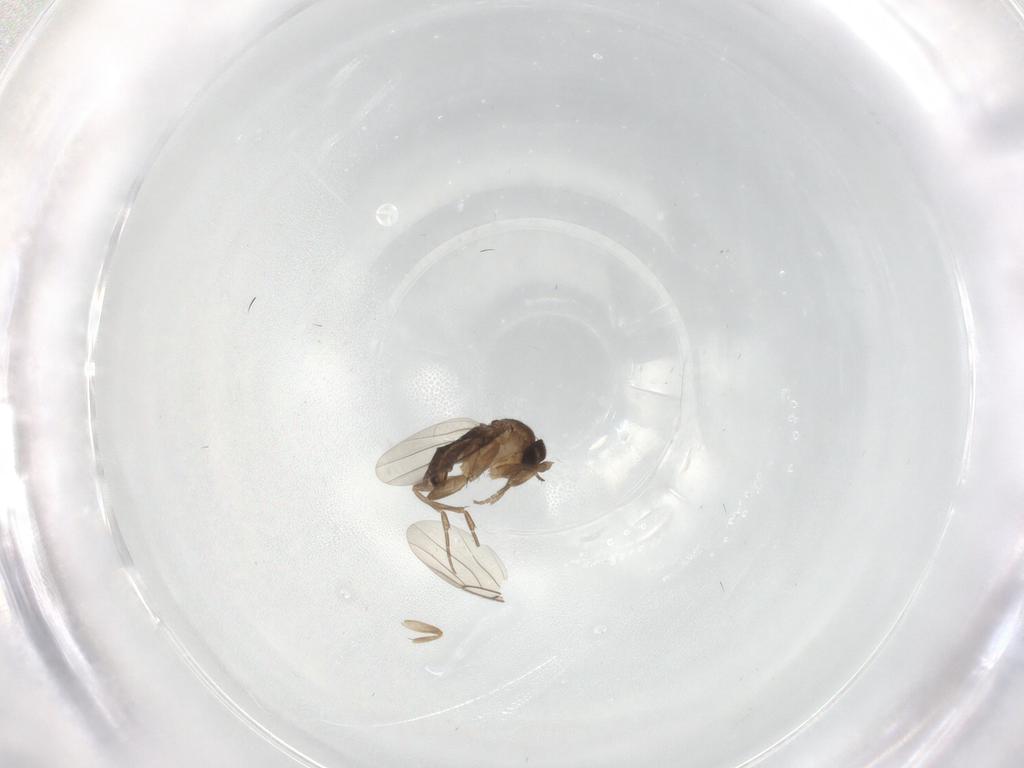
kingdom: Animalia
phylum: Arthropoda
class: Insecta
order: Diptera
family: Phoridae
